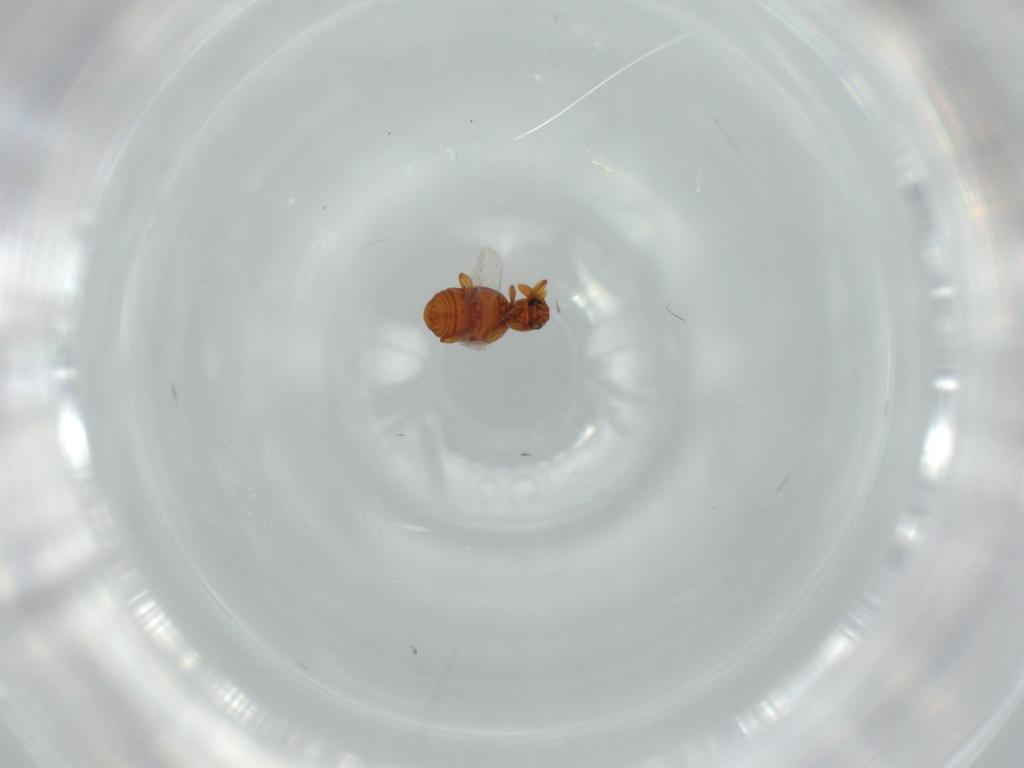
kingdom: Animalia
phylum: Arthropoda
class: Insecta
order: Coleoptera
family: Staphylinidae
